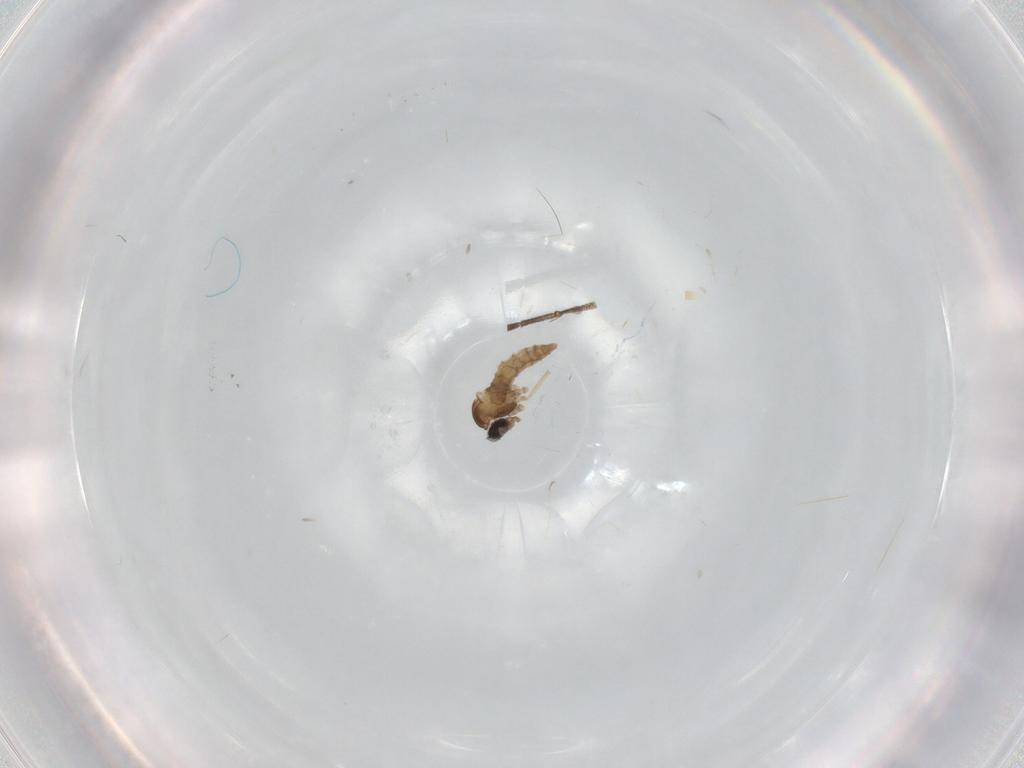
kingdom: Animalia
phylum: Arthropoda
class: Insecta
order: Diptera
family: Cecidomyiidae
